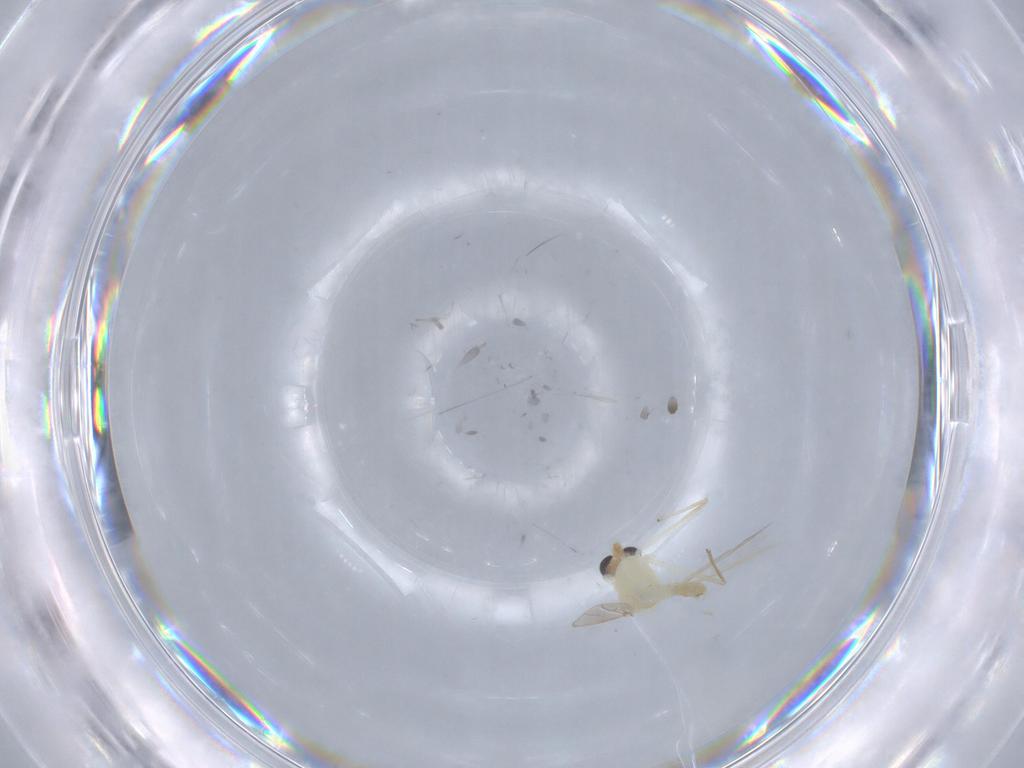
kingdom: Animalia
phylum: Arthropoda
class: Insecta
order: Diptera
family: Chironomidae
